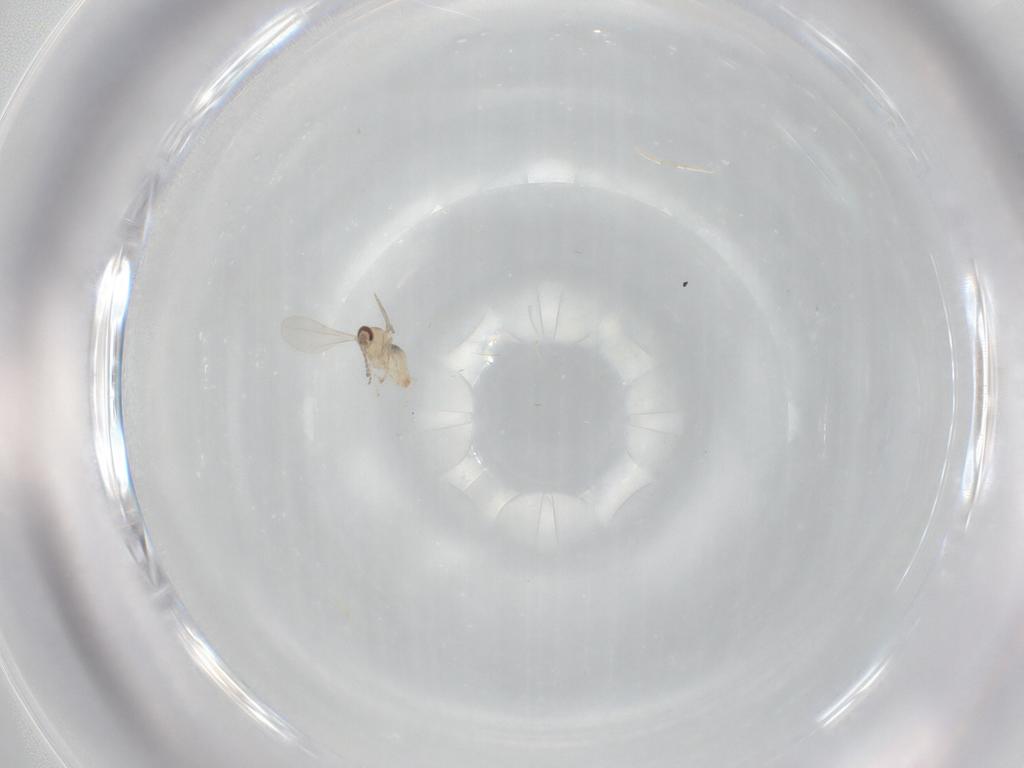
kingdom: Animalia
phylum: Arthropoda
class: Insecta
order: Diptera
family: Cecidomyiidae
